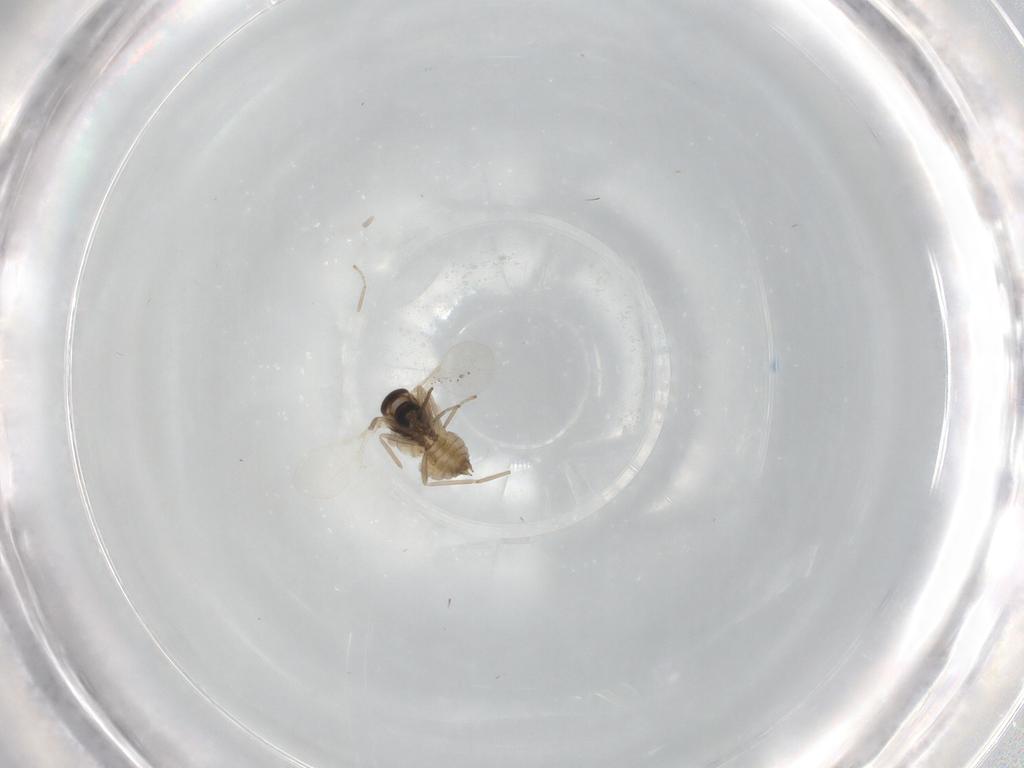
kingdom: Animalia
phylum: Arthropoda
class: Insecta
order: Diptera
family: Cecidomyiidae
